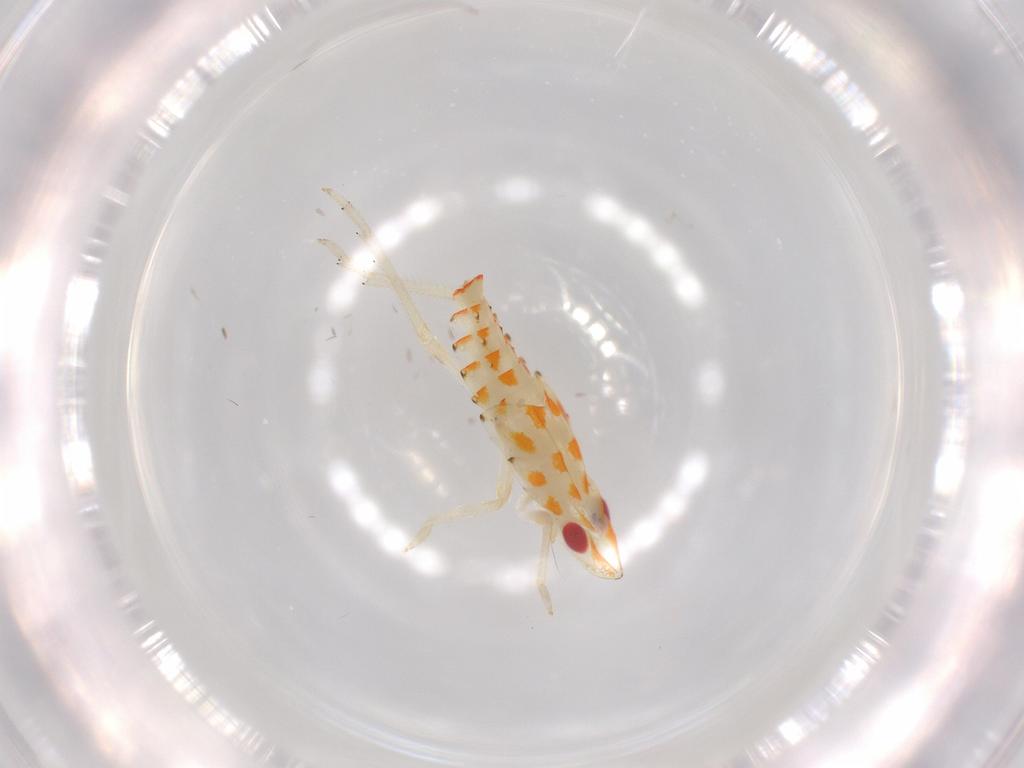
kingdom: Animalia
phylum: Arthropoda
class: Insecta
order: Hemiptera
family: Tropiduchidae
